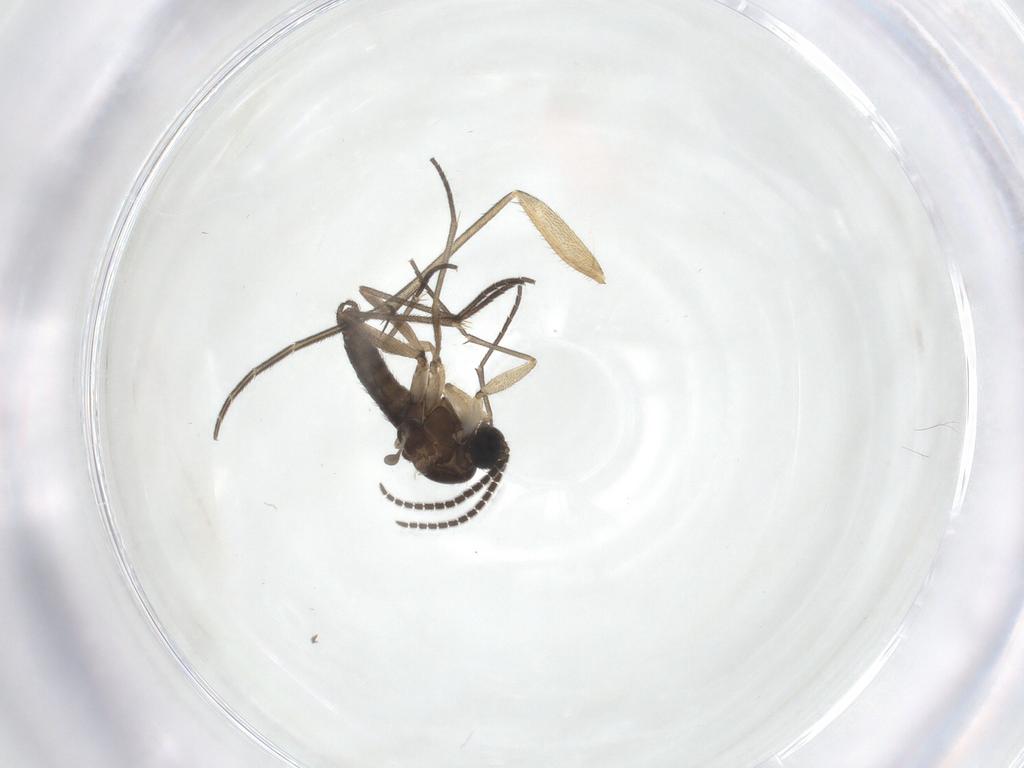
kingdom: Animalia
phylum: Arthropoda
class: Insecta
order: Diptera
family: Sciaridae
